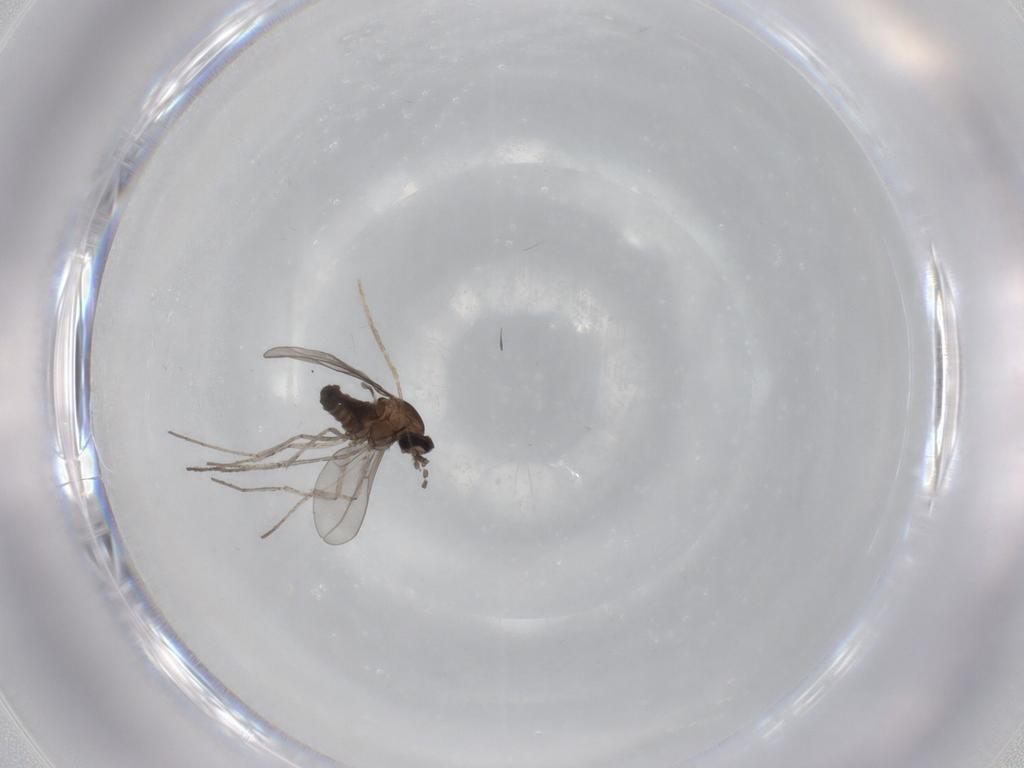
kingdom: Animalia
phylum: Arthropoda
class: Insecta
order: Diptera
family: Cecidomyiidae
